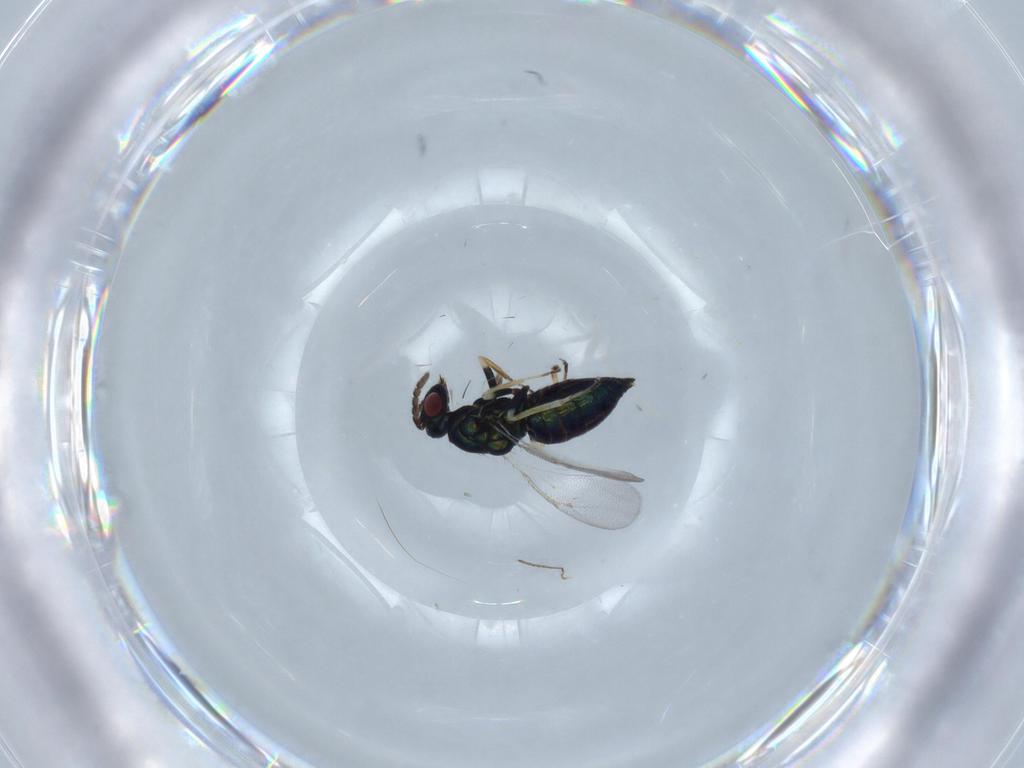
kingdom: Animalia
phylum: Arthropoda
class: Insecta
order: Hymenoptera
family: Eulophidae
